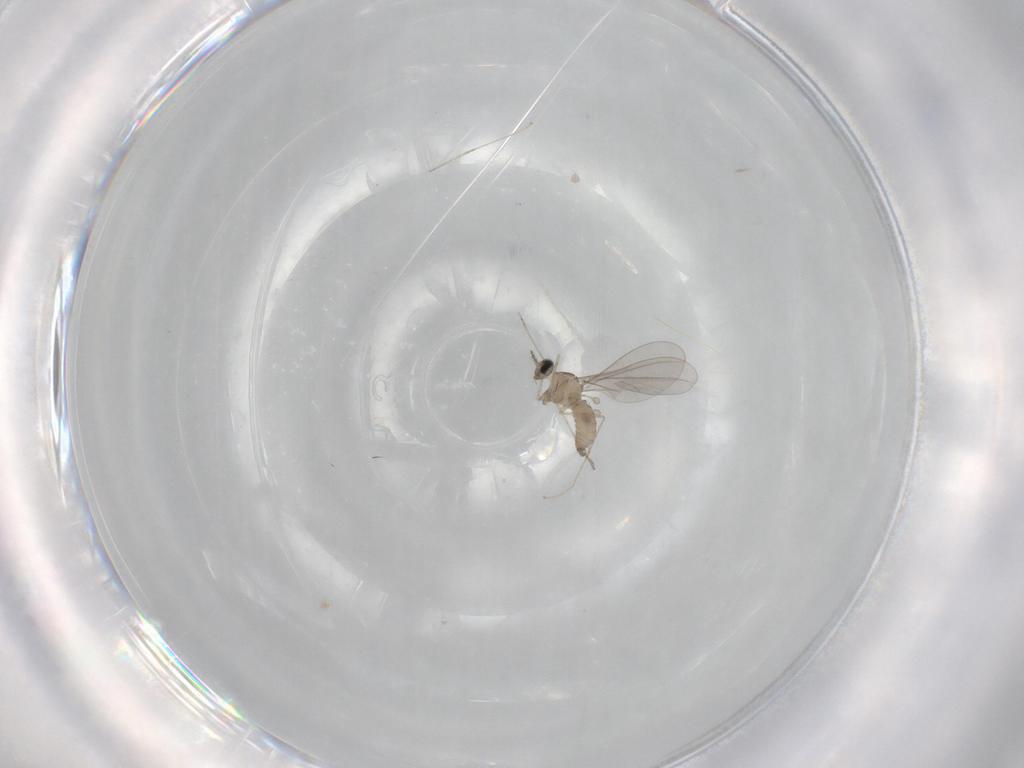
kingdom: Animalia
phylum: Arthropoda
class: Insecta
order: Diptera
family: Cecidomyiidae
